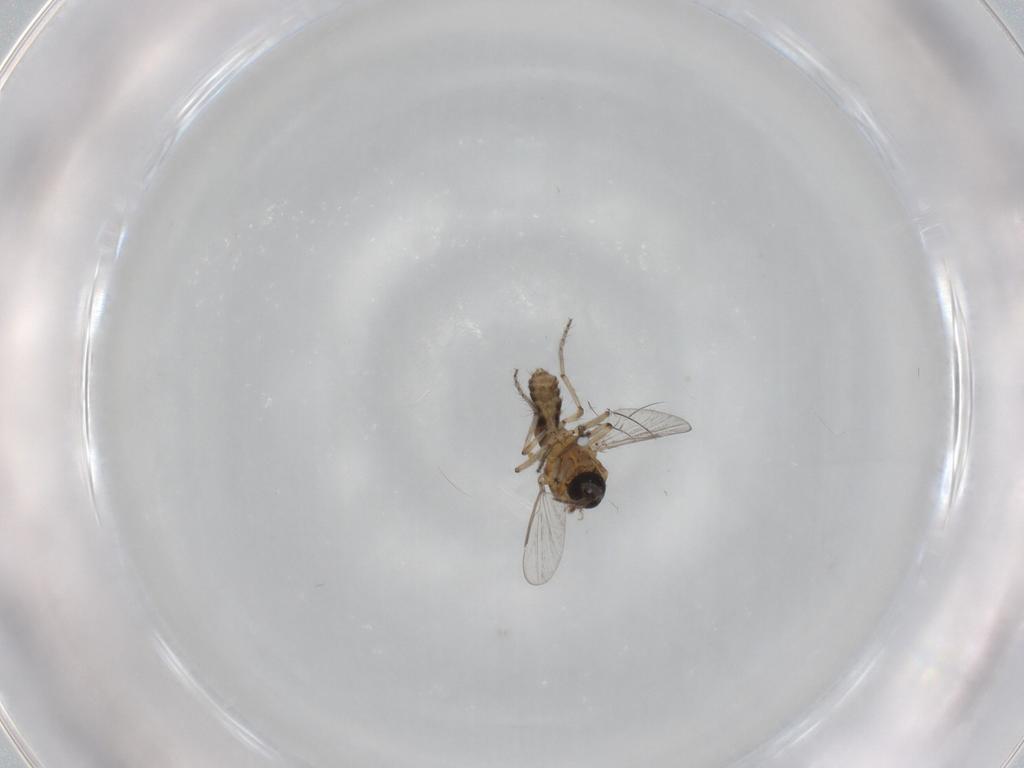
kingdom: Animalia
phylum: Arthropoda
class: Insecta
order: Diptera
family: Ceratopogonidae
